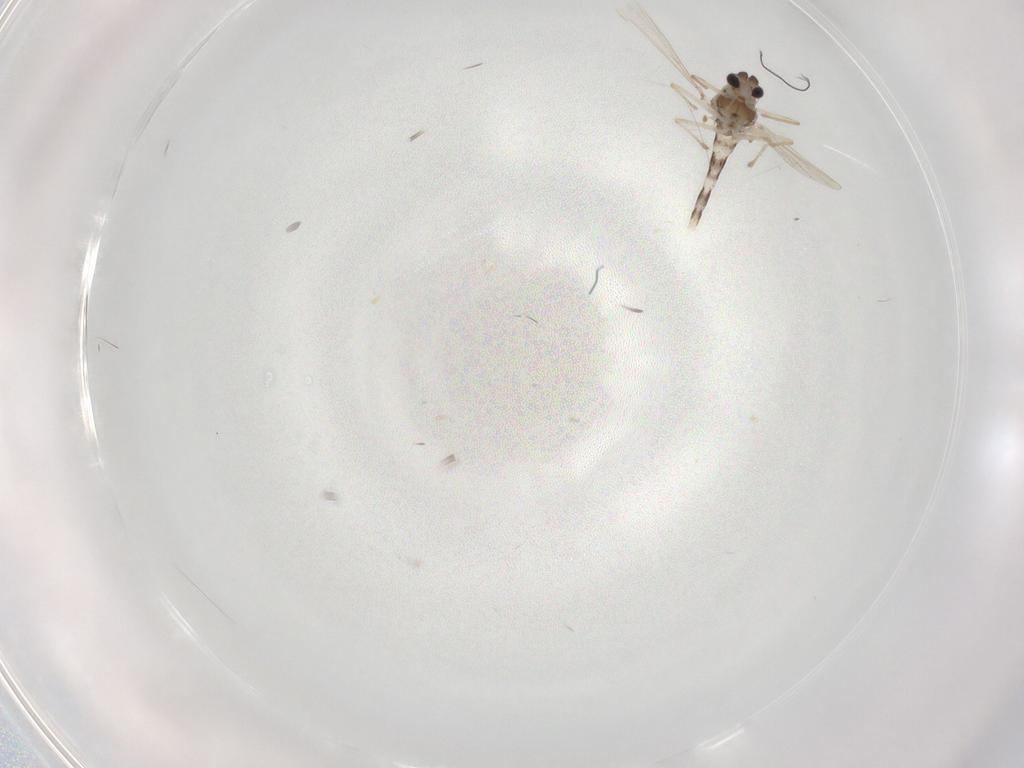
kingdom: Animalia
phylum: Arthropoda
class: Insecta
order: Diptera
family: Chironomidae
